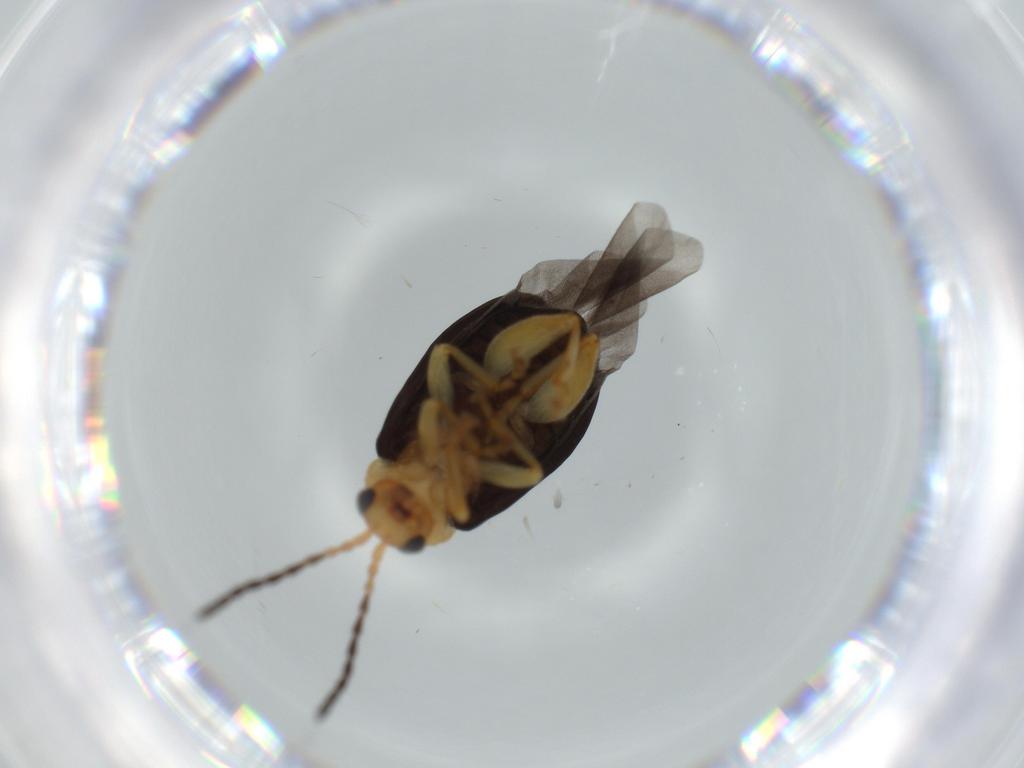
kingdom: Animalia
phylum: Arthropoda
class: Insecta
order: Coleoptera
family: Chrysomelidae
